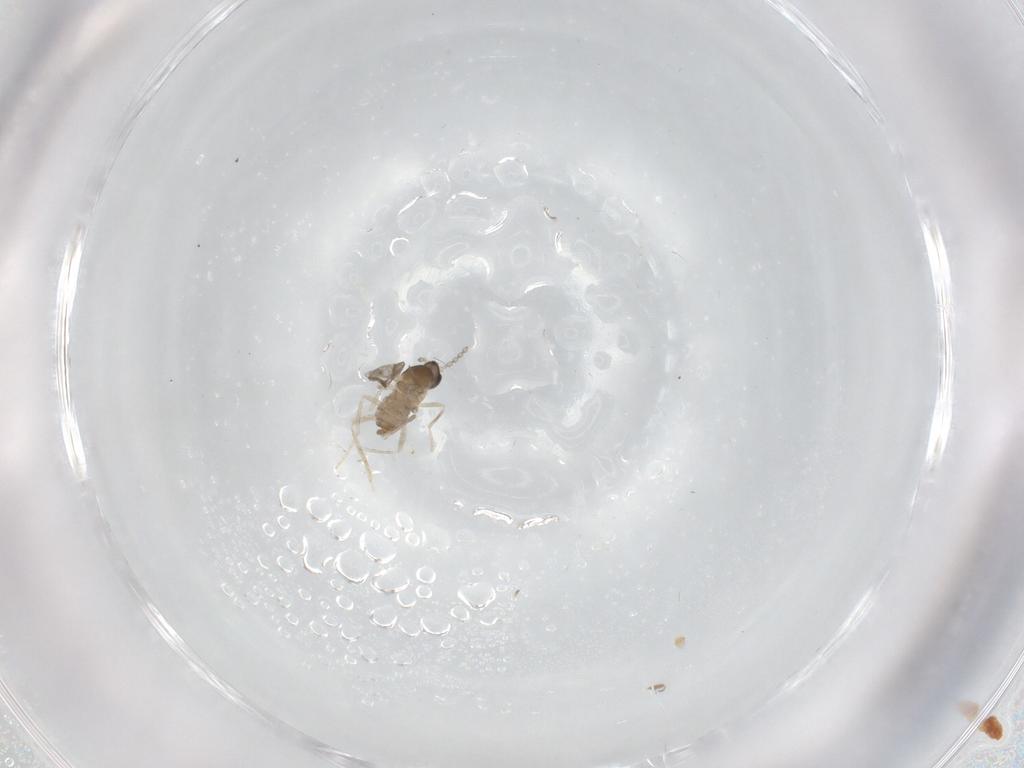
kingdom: Animalia
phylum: Arthropoda
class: Insecta
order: Diptera
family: Cecidomyiidae
